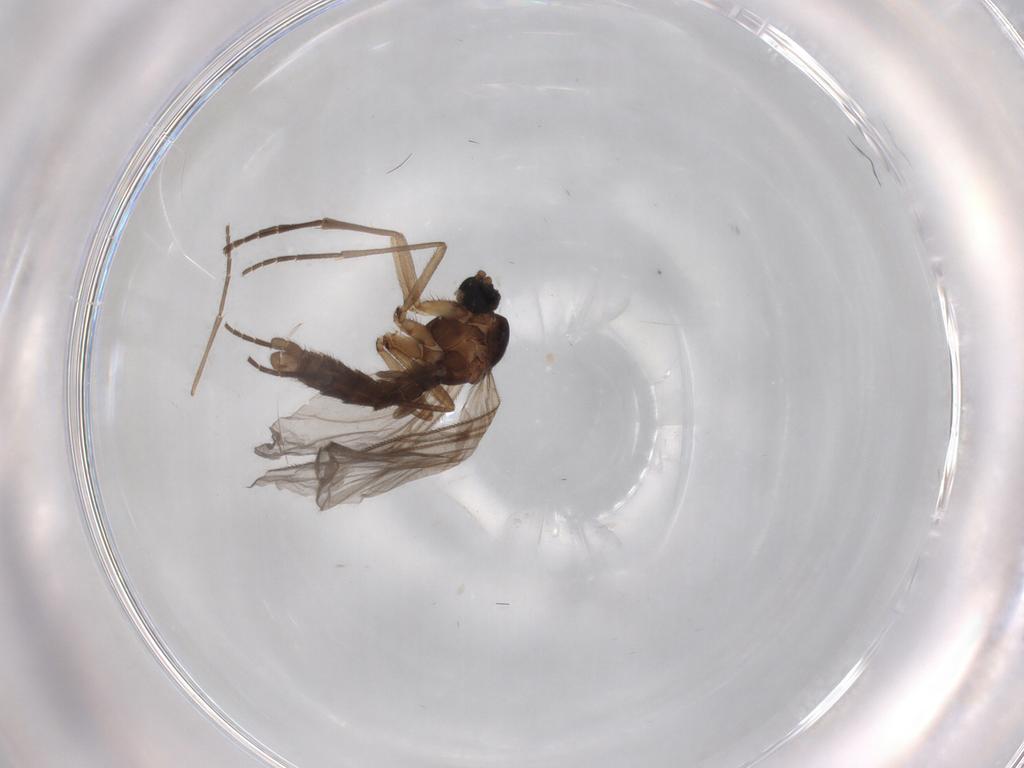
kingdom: Animalia
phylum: Arthropoda
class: Insecta
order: Diptera
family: Sciaridae
